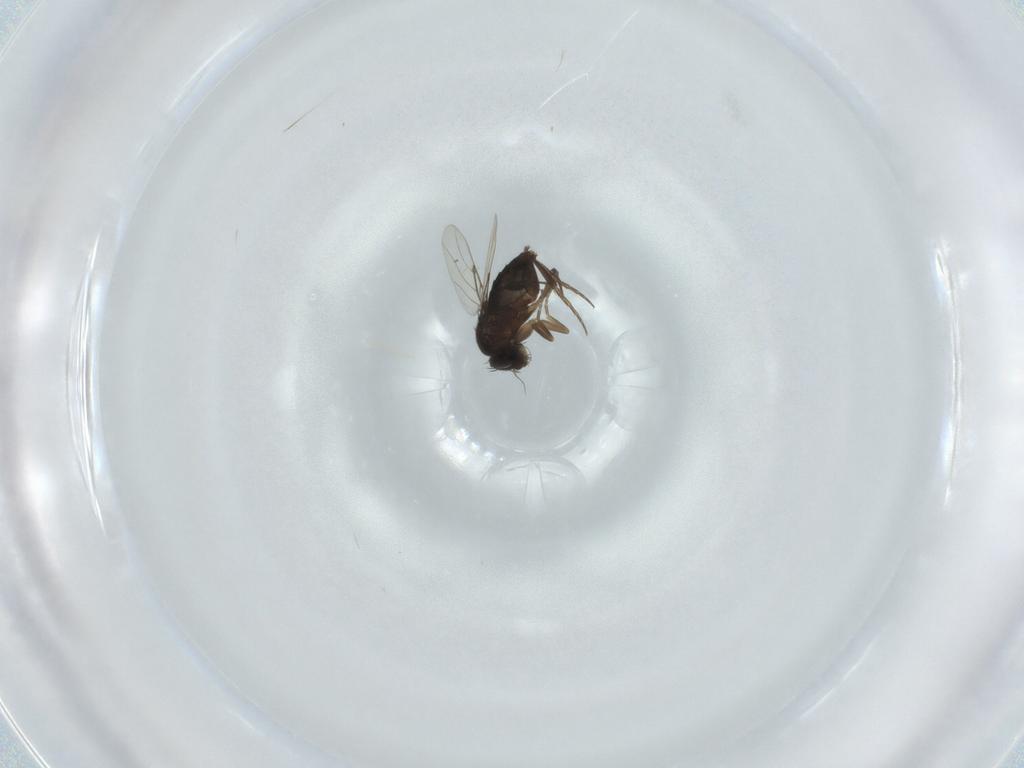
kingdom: Animalia
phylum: Arthropoda
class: Insecta
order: Diptera
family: Phoridae
